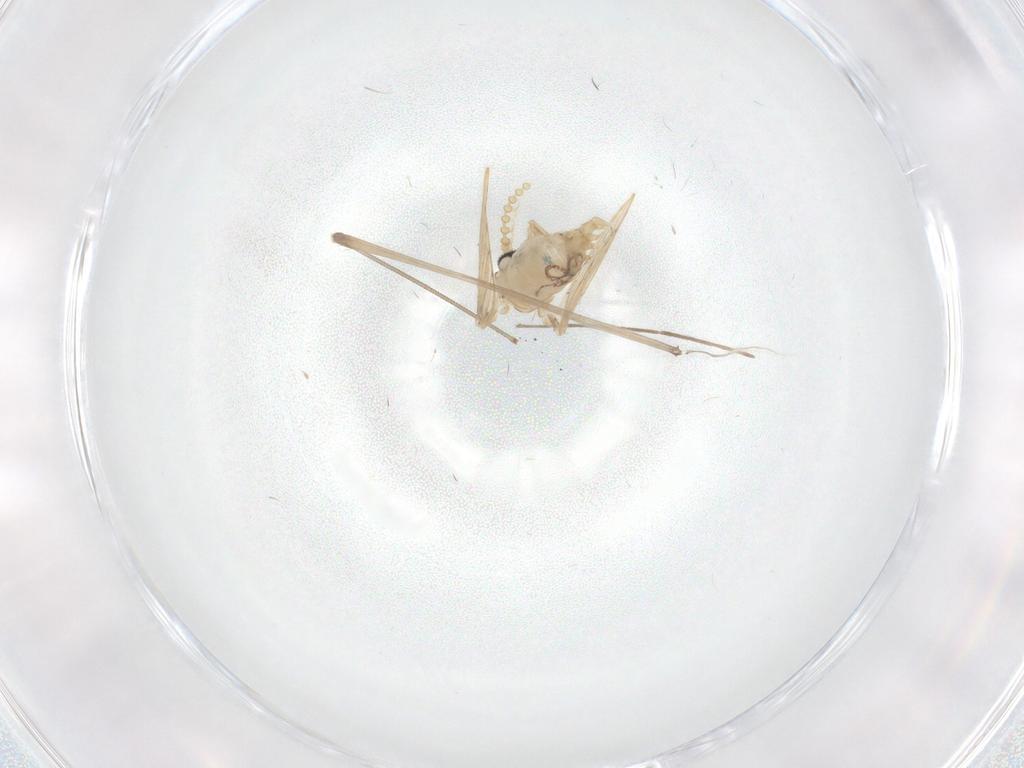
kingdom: Animalia
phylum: Arthropoda
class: Insecta
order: Diptera
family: Psychodidae
